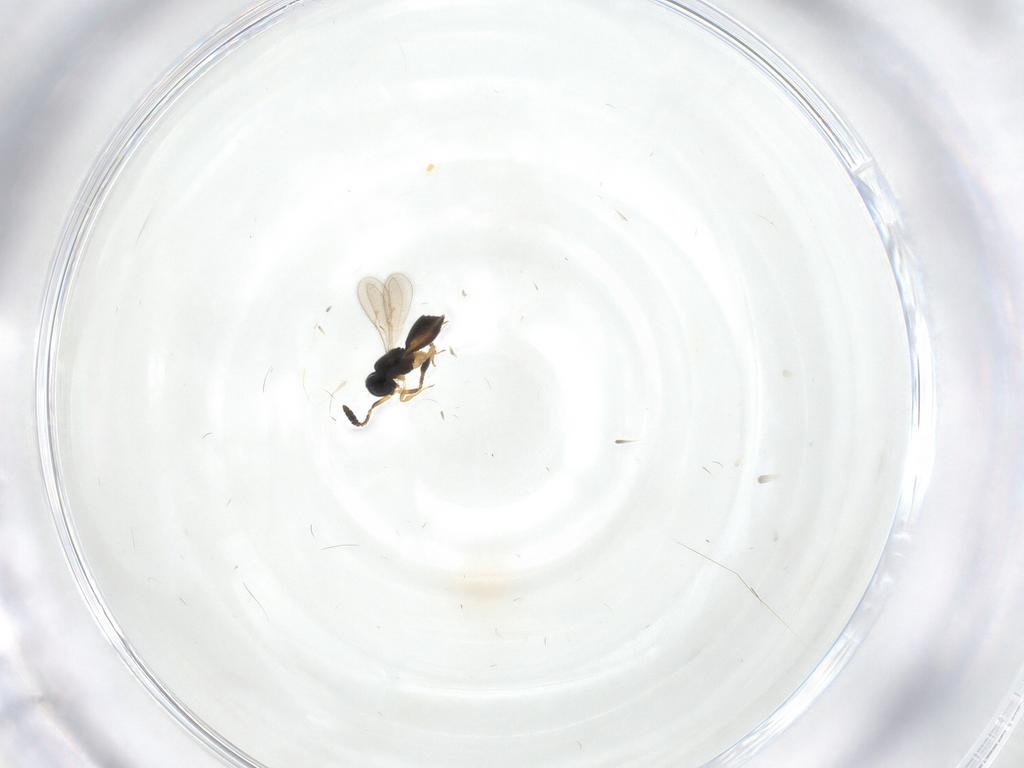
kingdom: Animalia
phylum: Arthropoda
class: Insecta
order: Hymenoptera
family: Scelionidae
